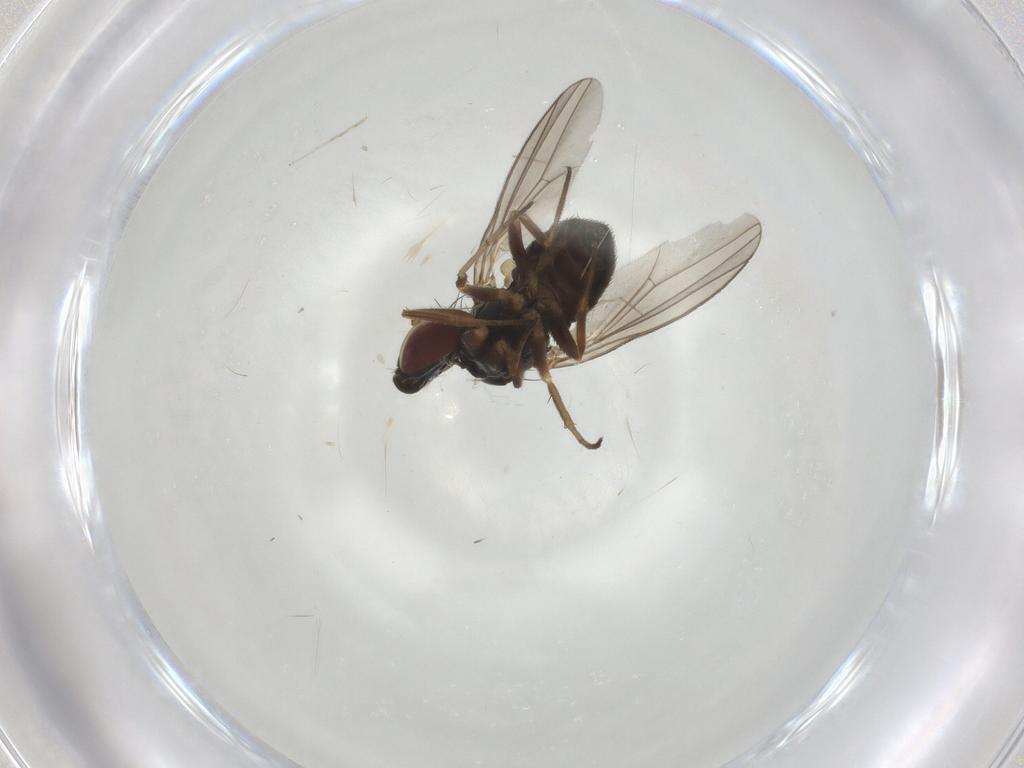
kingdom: Animalia
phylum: Arthropoda
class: Insecta
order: Diptera
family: Dolichopodidae
